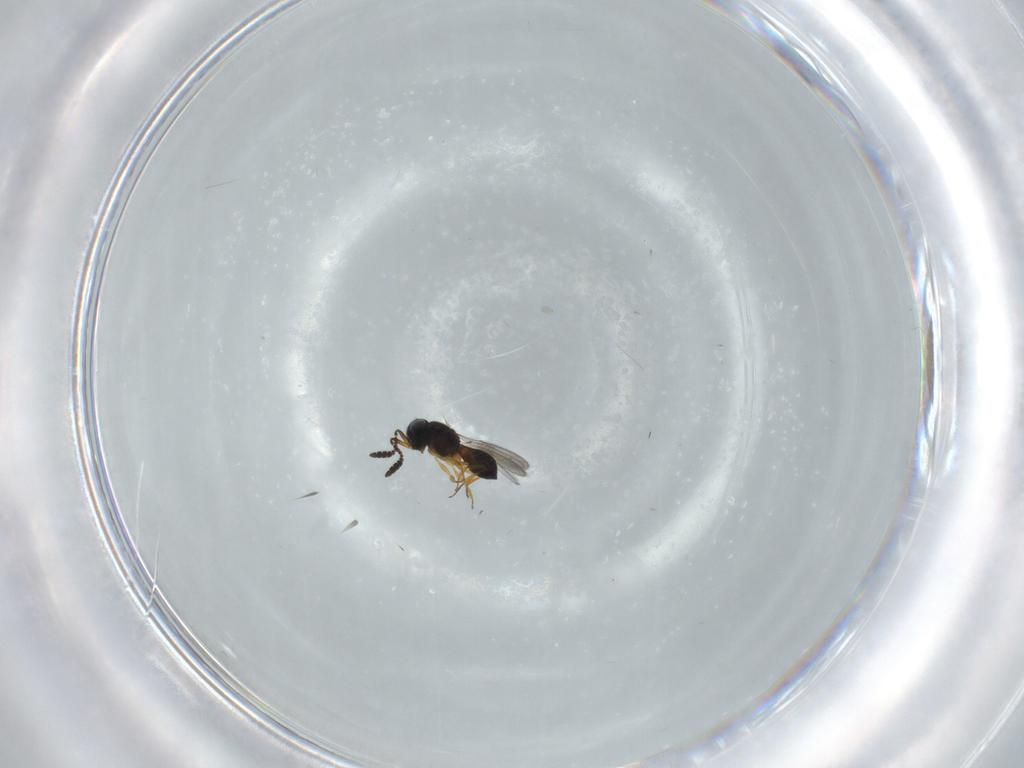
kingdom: Animalia
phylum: Arthropoda
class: Insecta
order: Hymenoptera
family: Scelionidae
